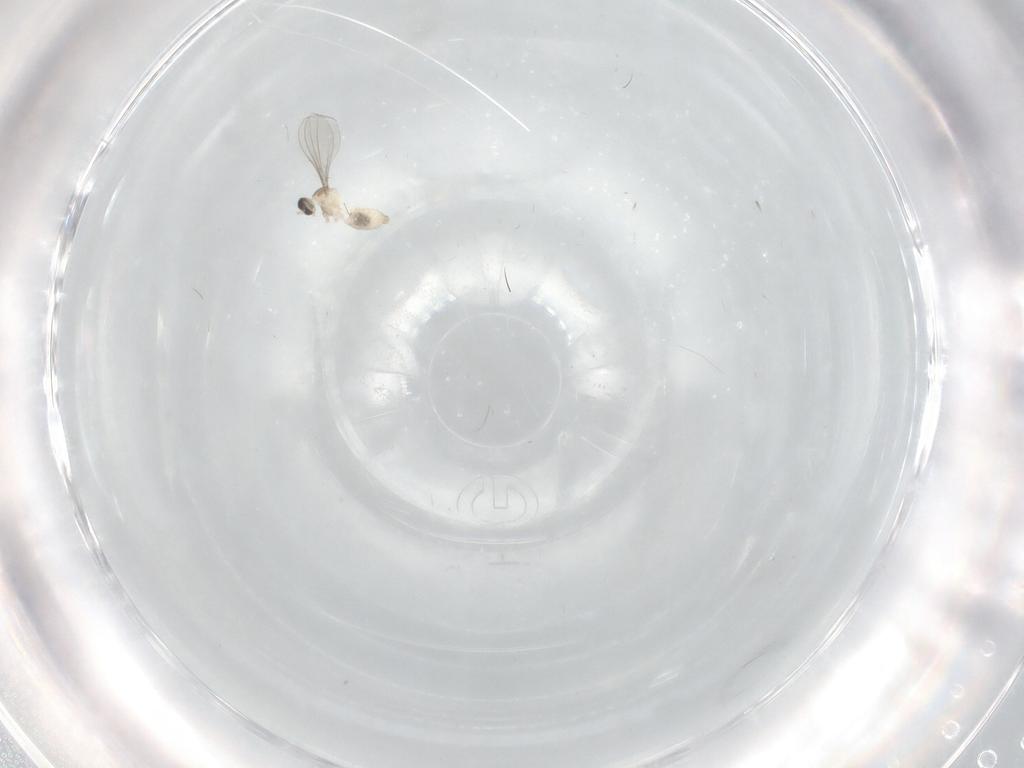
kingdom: Animalia
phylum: Arthropoda
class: Insecta
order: Diptera
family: Cecidomyiidae
